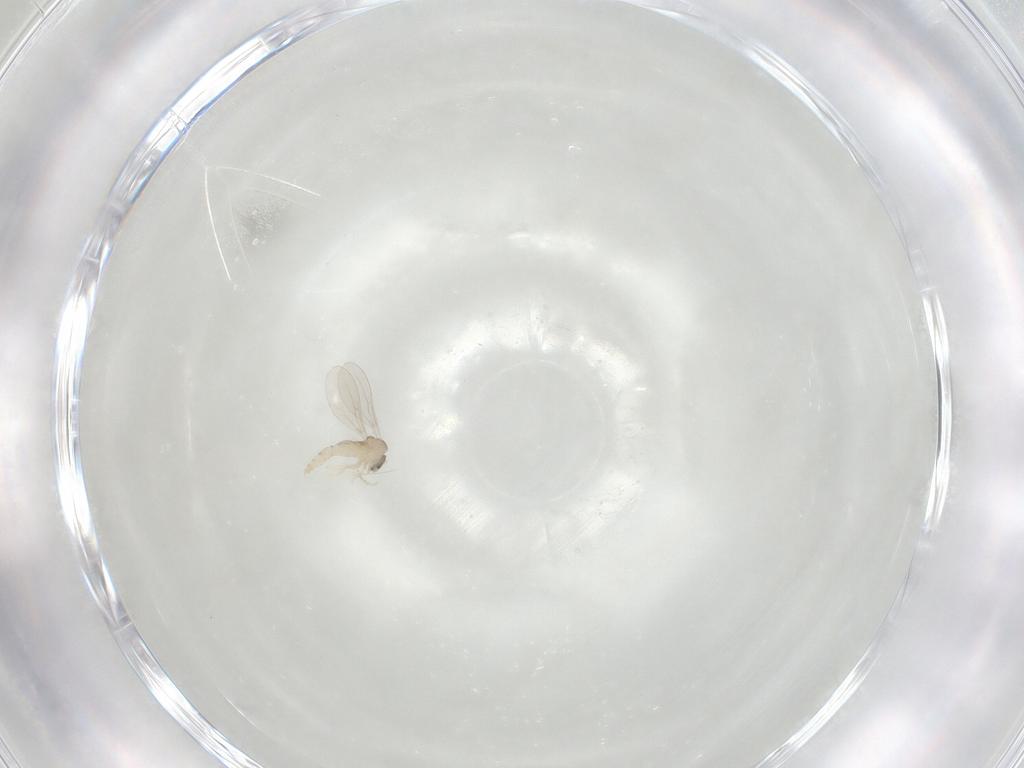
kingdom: Animalia
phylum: Arthropoda
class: Insecta
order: Diptera
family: Cecidomyiidae
